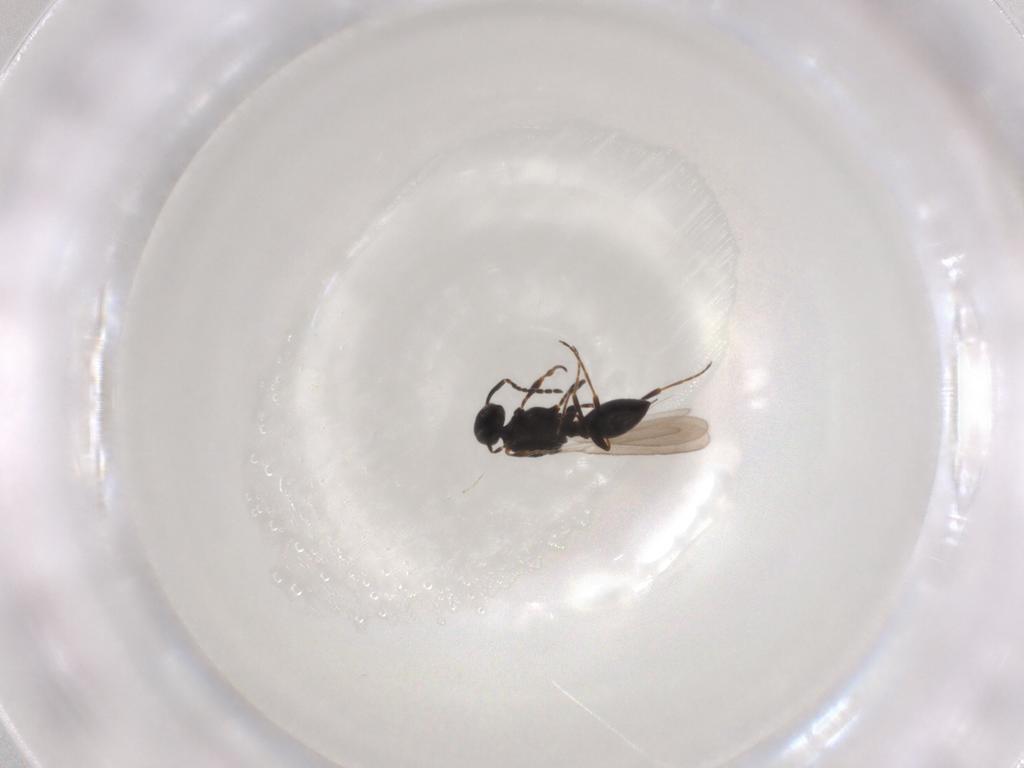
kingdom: Animalia
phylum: Arthropoda
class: Insecta
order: Hymenoptera
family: Platygastridae
